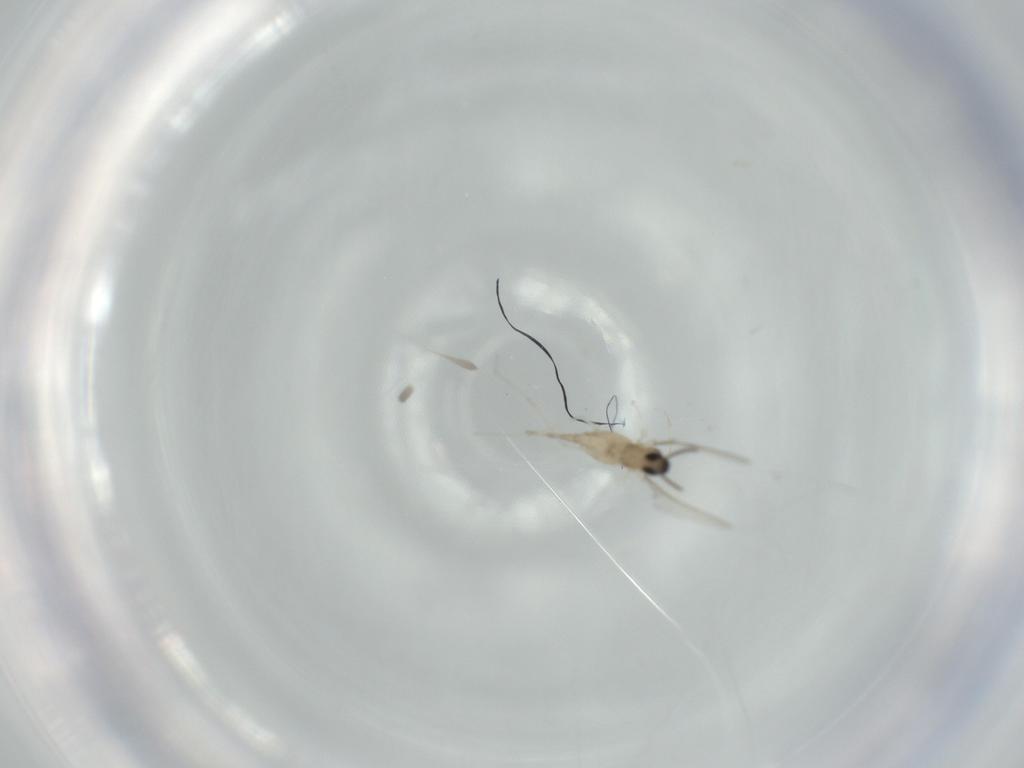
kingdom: Animalia
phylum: Arthropoda
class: Insecta
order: Diptera
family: Cecidomyiidae
